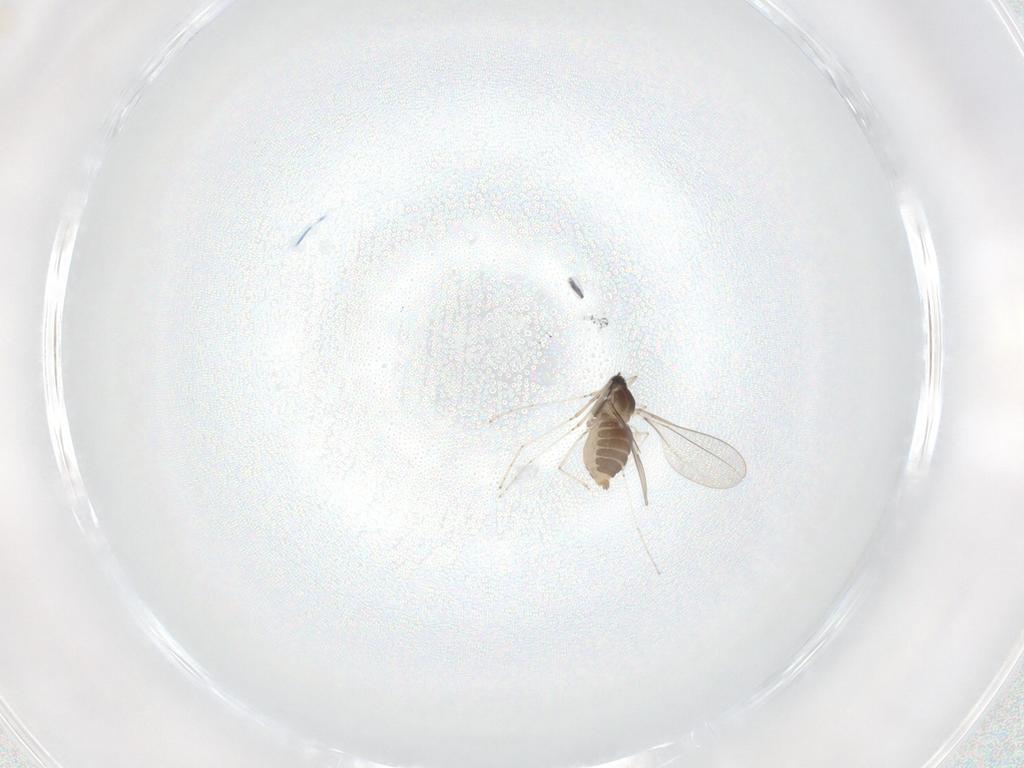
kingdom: Animalia
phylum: Arthropoda
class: Insecta
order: Diptera
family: Cecidomyiidae
